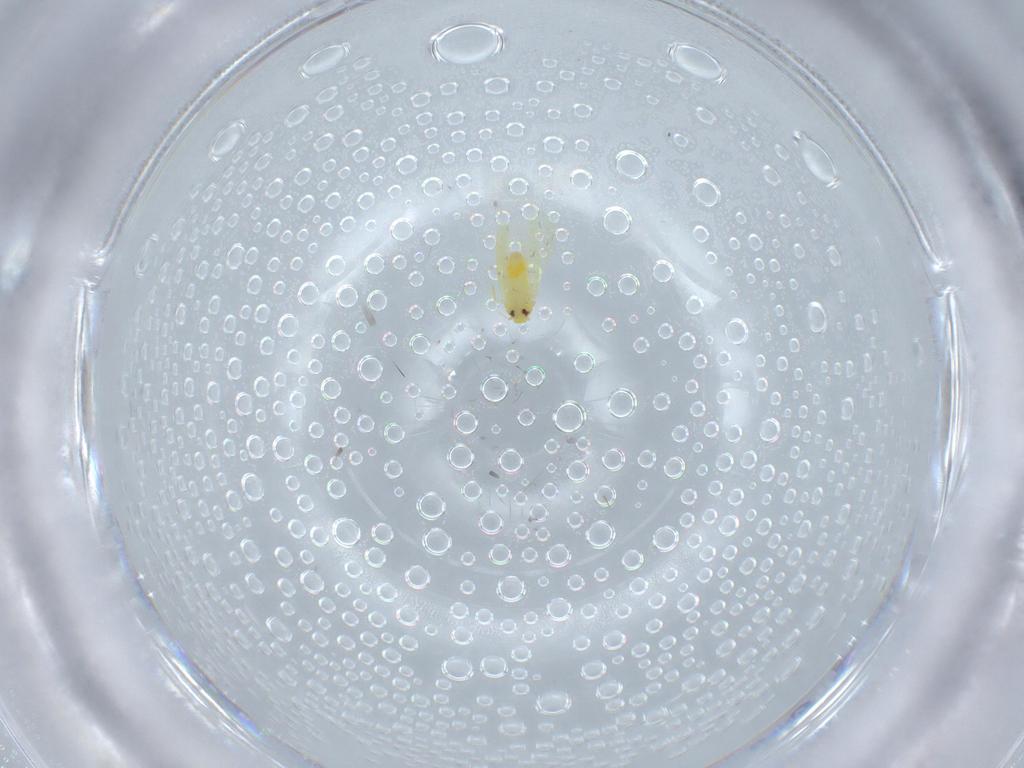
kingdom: Animalia
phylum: Arthropoda
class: Insecta
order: Hemiptera
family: Aleyrodidae
